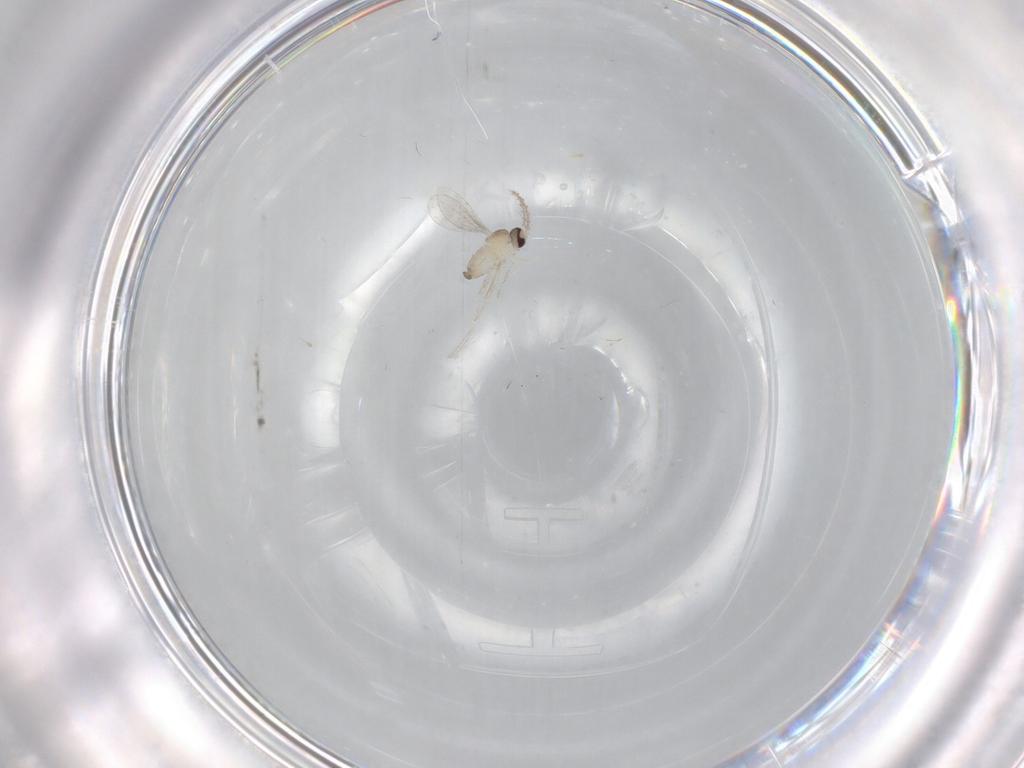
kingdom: Animalia
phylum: Arthropoda
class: Insecta
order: Diptera
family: Cecidomyiidae
